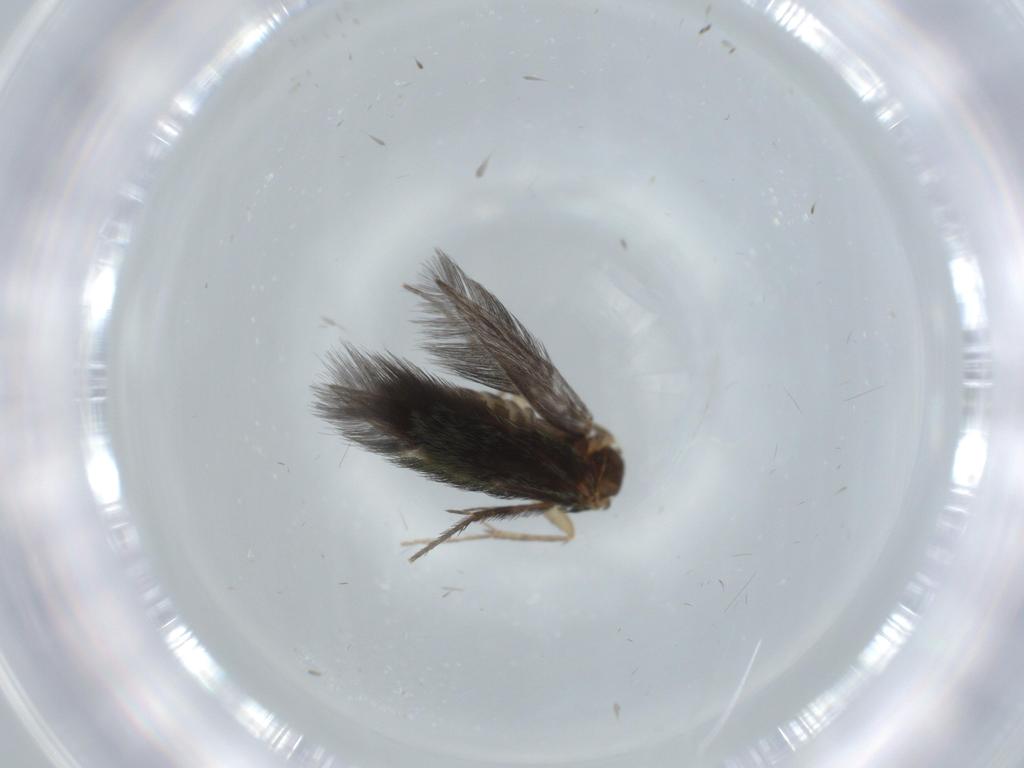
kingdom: Animalia
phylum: Arthropoda
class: Insecta
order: Trichoptera
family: Hydroptilidae
